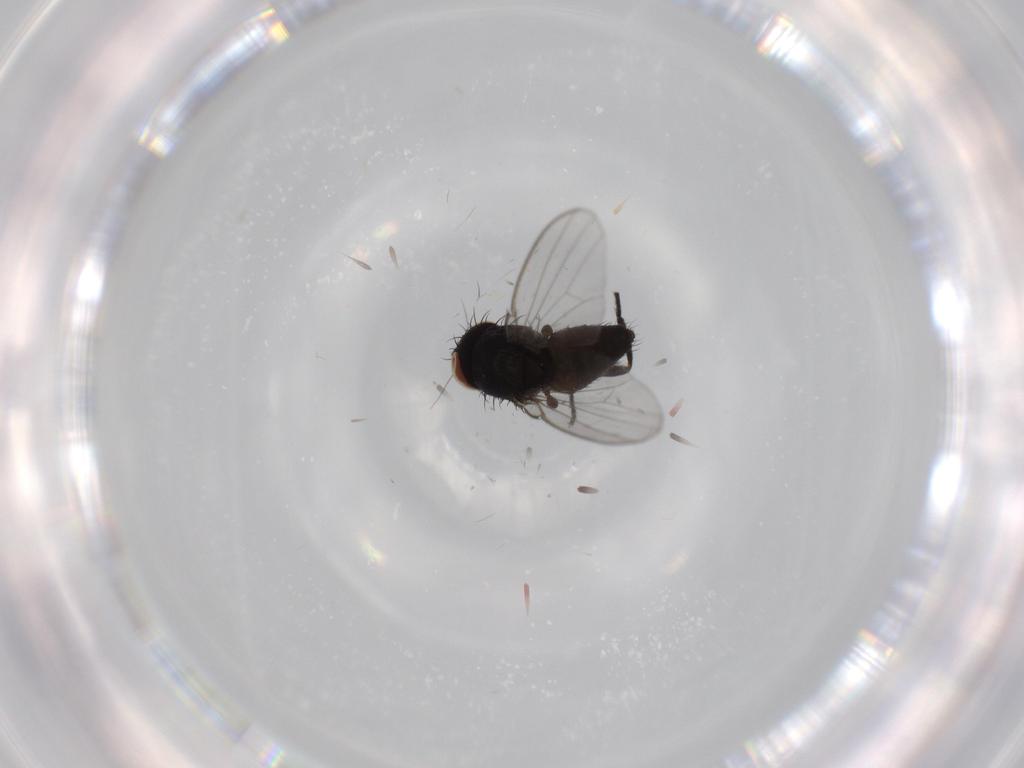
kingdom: Animalia
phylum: Arthropoda
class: Insecta
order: Diptera
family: Milichiidae
